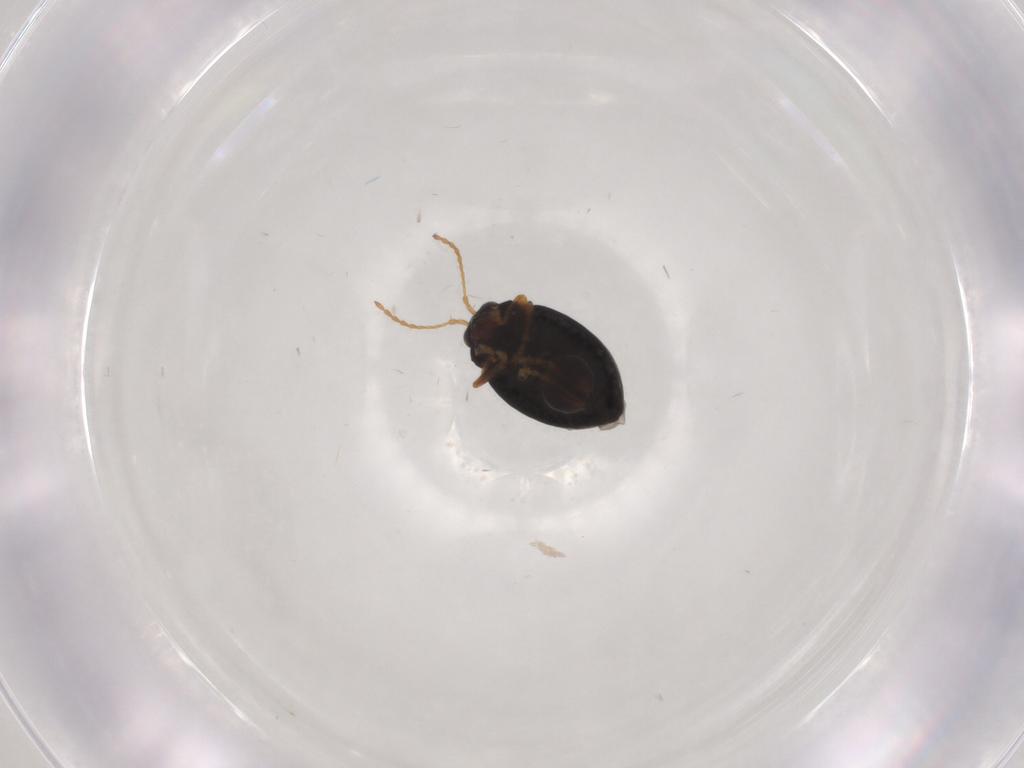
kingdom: Animalia
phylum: Arthropoda
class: Insecta
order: Coleoptera
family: Chrysomelidae
